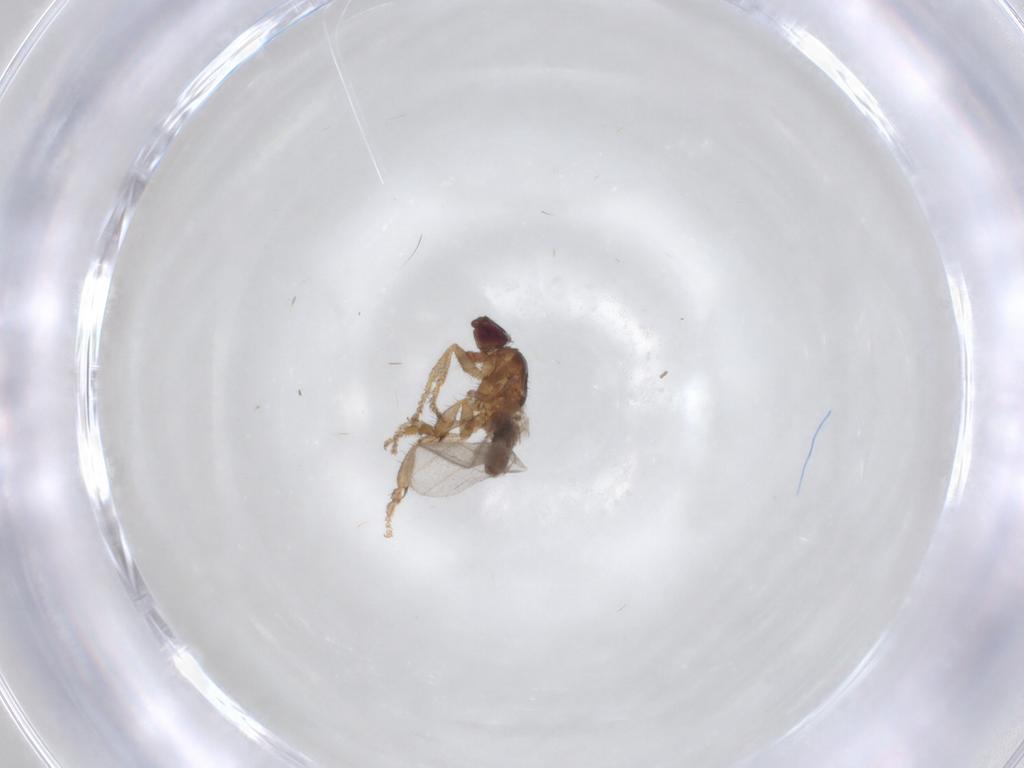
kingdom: Animalia
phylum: Arthropoda
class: Insecta
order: Diptera
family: Sphaeroceridae
